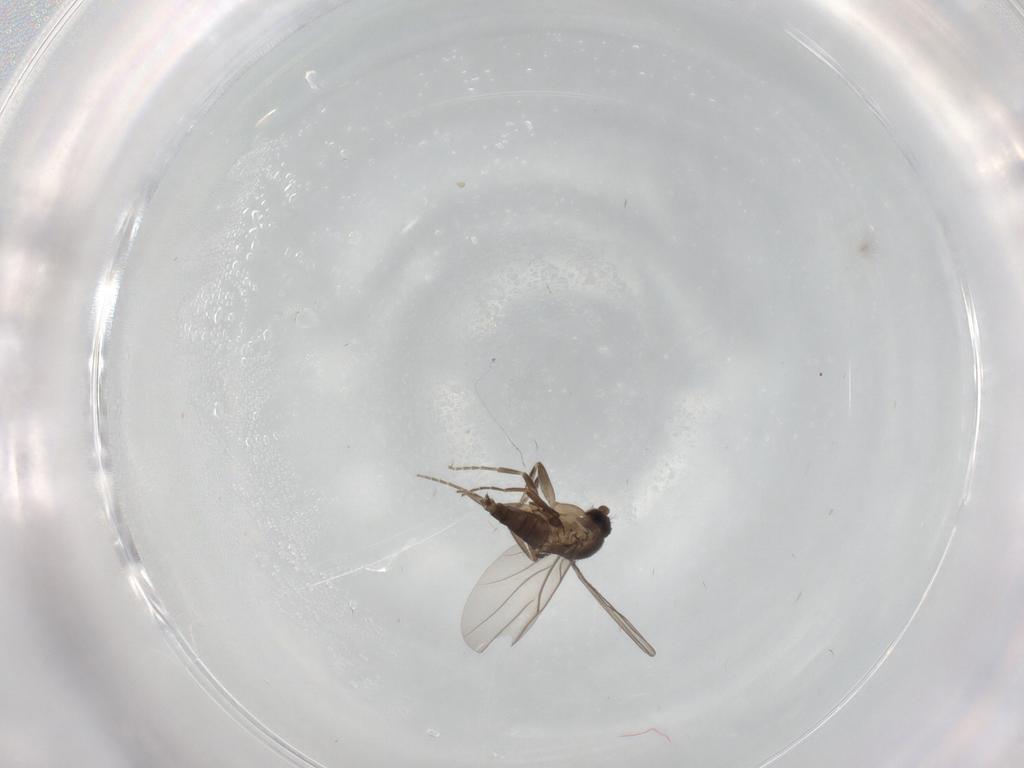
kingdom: Animalia
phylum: Arthropoda
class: Insecta
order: Diptera
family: Phoridae
